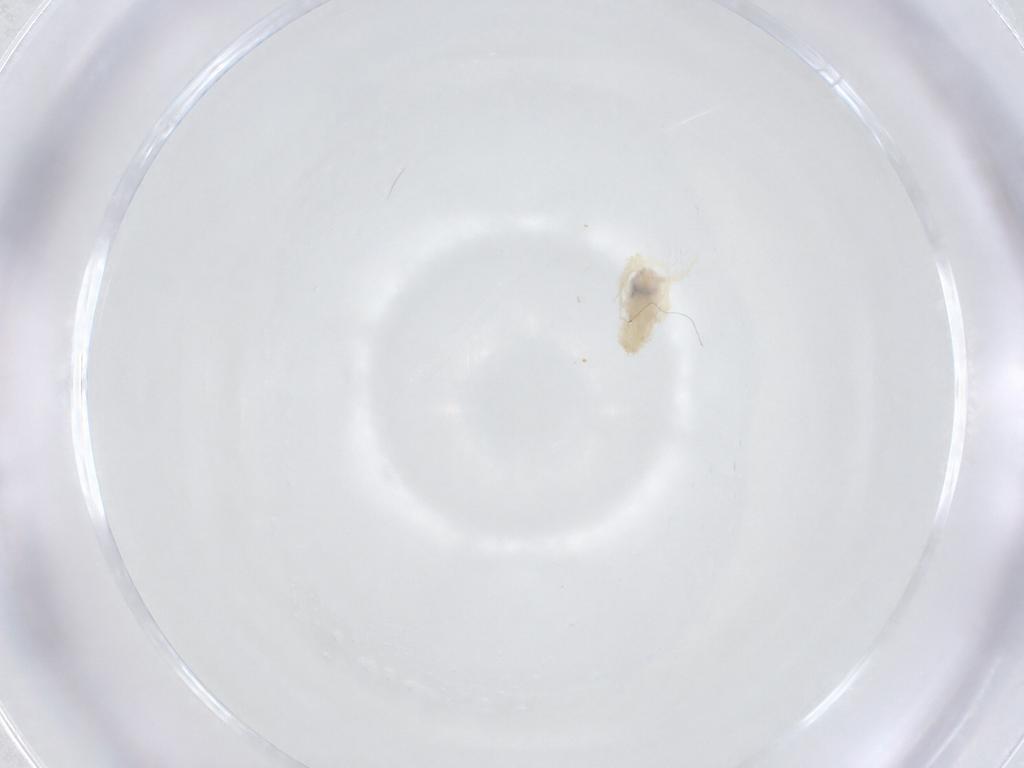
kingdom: Animalia
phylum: Arthropoda
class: Arachnida
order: Trombidiformes
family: Anystidae
